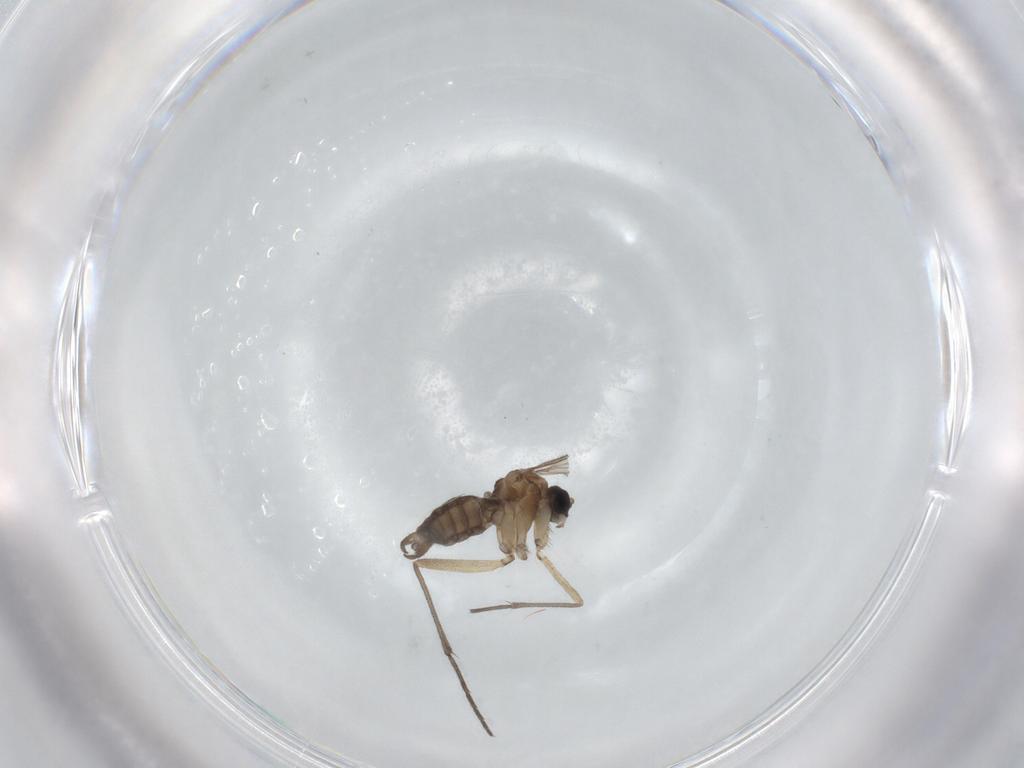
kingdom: Animalia
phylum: Arthropoda
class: Insecta
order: Diptera
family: Sciaridae
